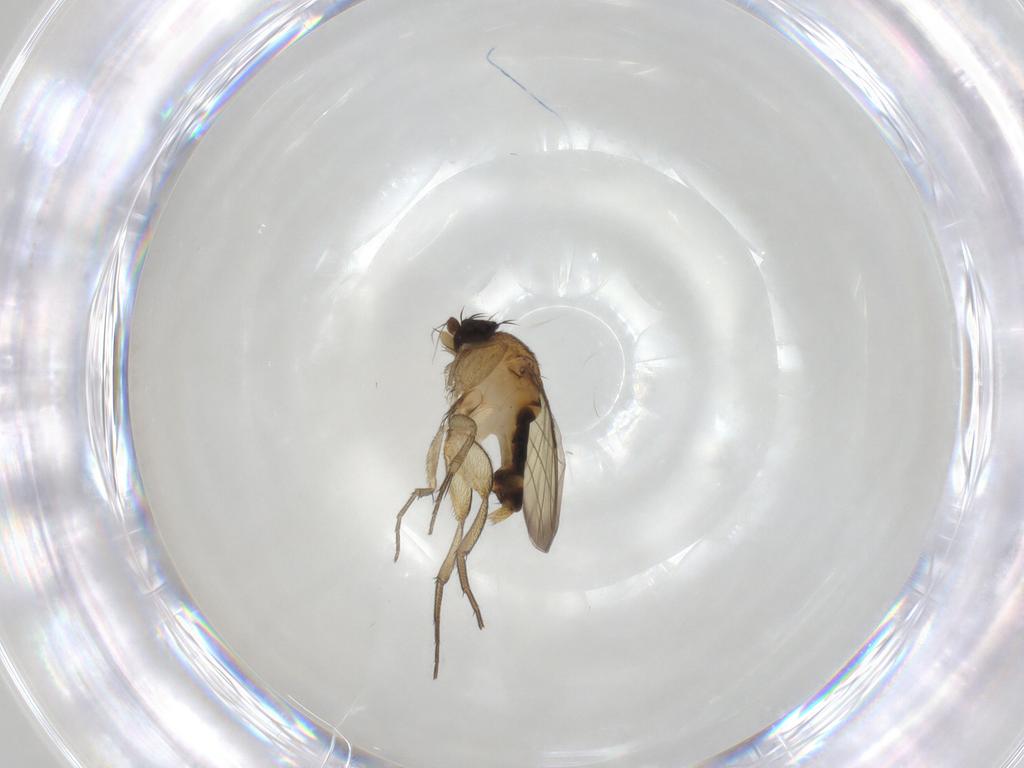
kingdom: Animalia
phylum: Arthropoda
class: Insecta
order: Diptera
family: Phoridae
